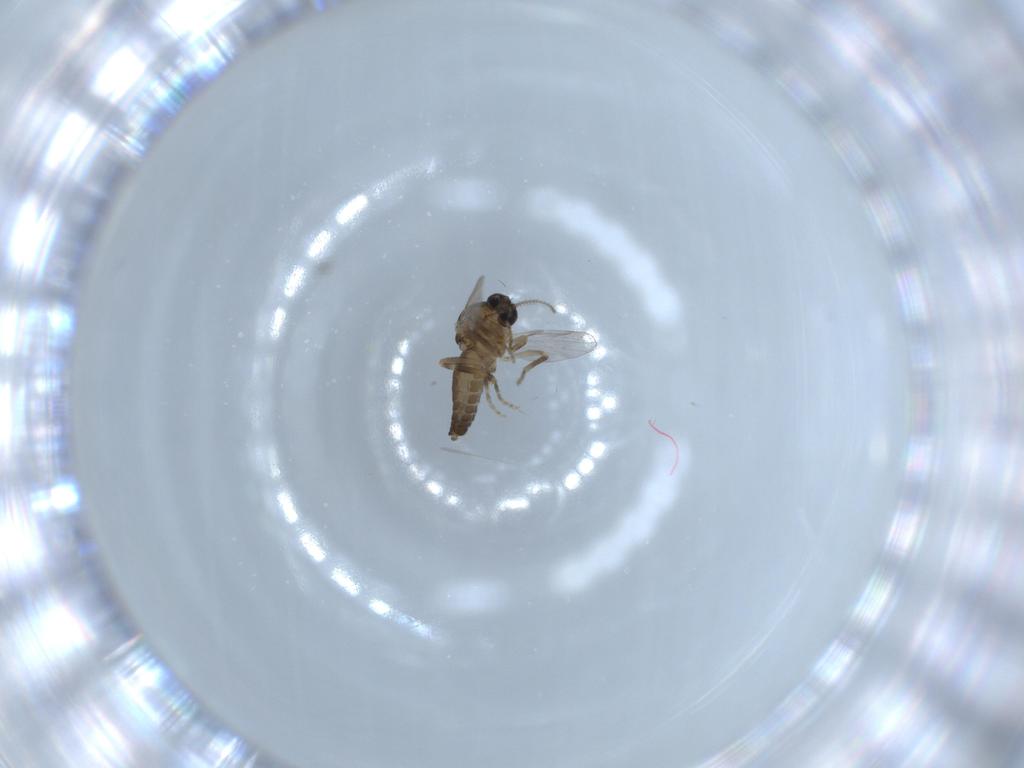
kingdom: Animalia
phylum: Arthropoda
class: Insecta
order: Diptera
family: Ceratopogonidae
